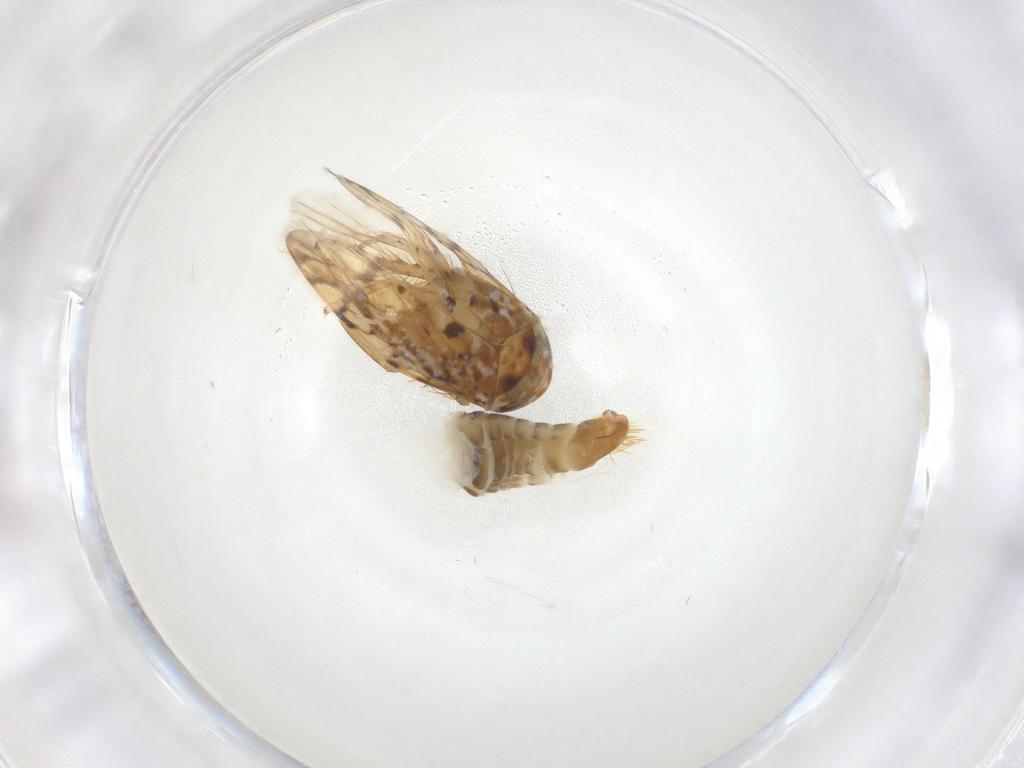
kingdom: Animalia
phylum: Arthropoda
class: Insecta
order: Hemiptera
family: Cicadellidae
